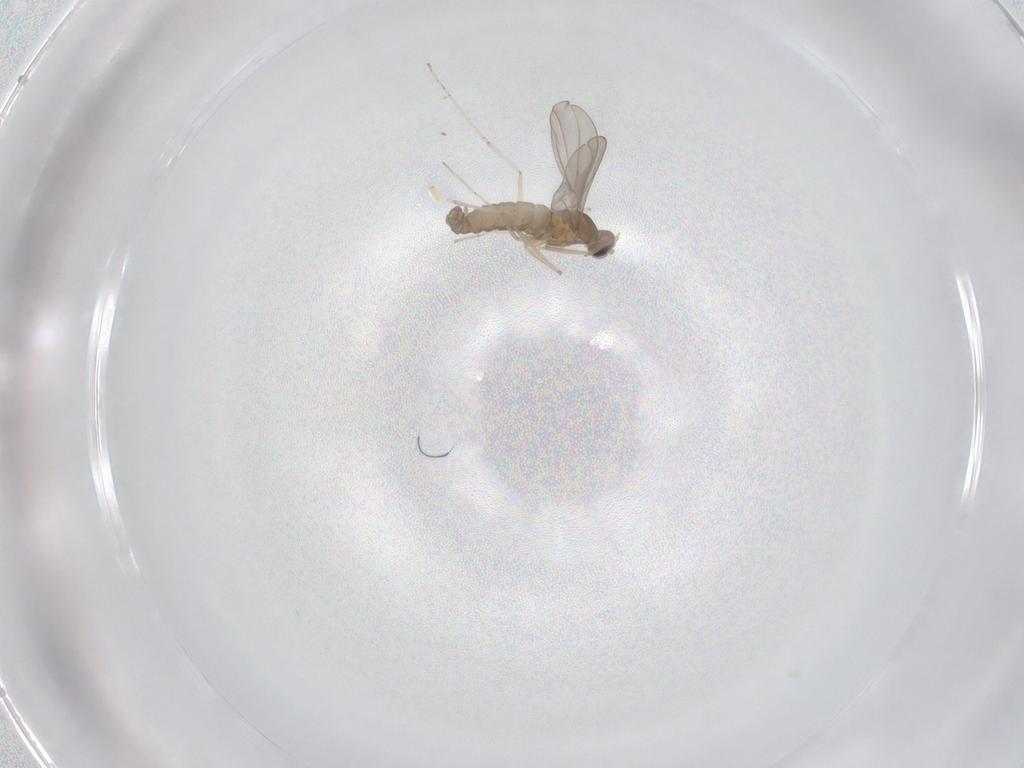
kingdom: Animalia
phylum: Arthropoda
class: Insecta
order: Diptera
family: Cecidomyiidae
